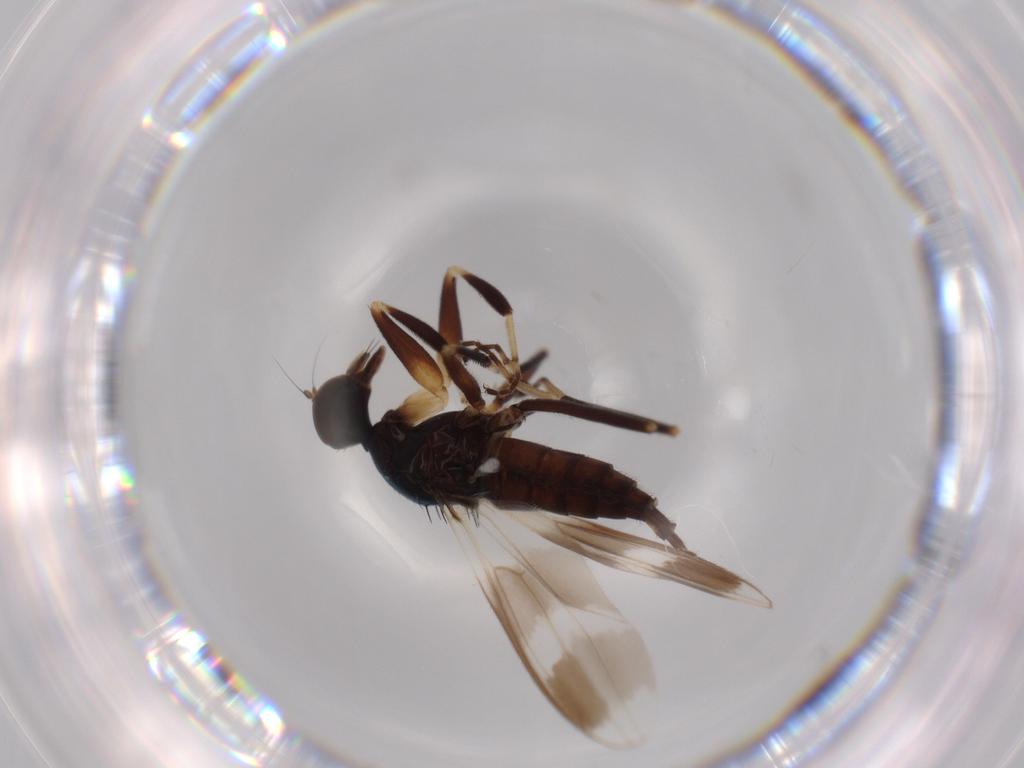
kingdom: Animalia
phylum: Arthropoda
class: Insecta
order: Diptera
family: Hybotidae
